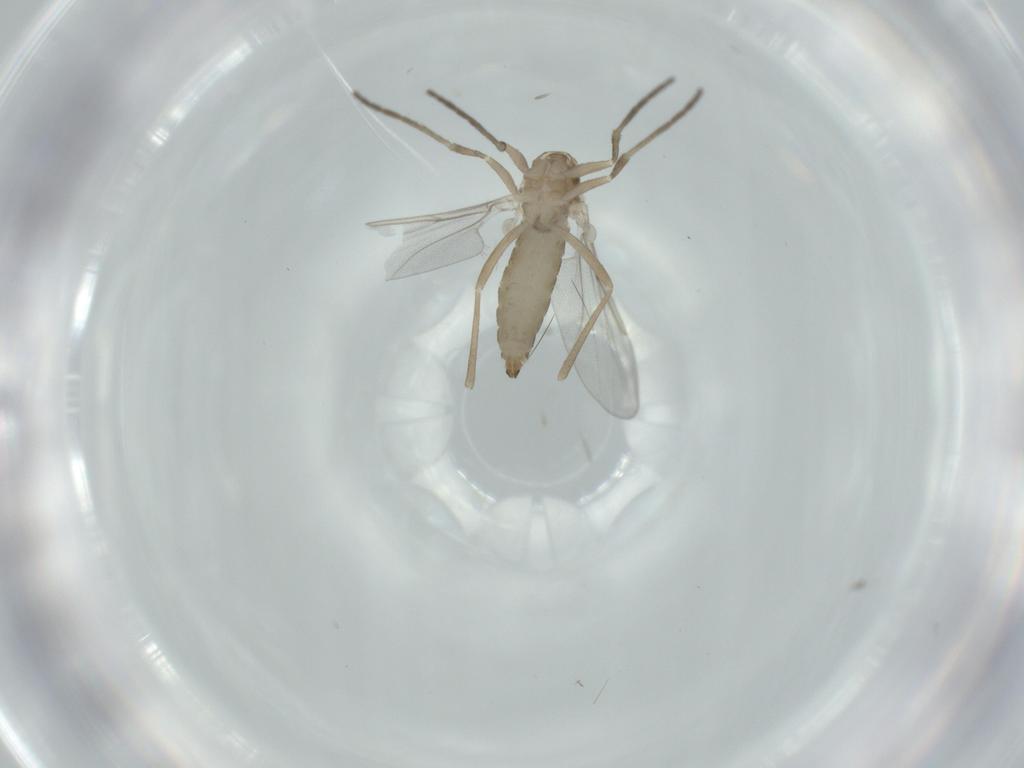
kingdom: Animalia
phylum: Arthropoda
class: Insecta
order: Diptera
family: Cecidomyiidae
